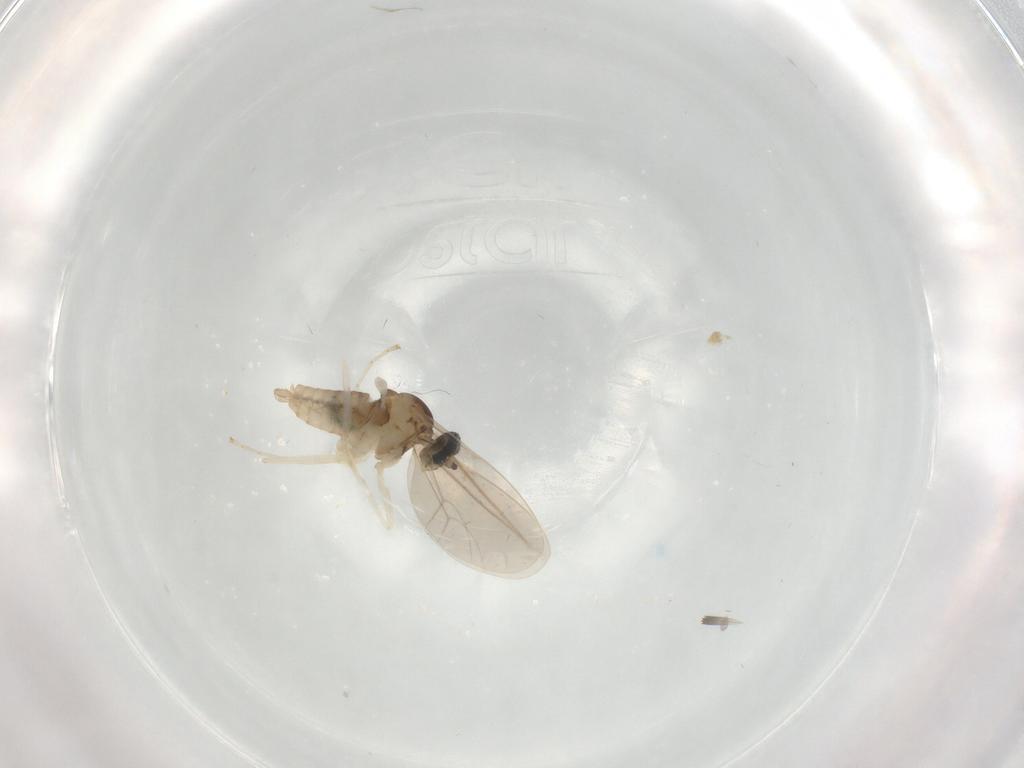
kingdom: Animalia
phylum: Arthropoda
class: Insecta
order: Diptera
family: Cecidomyiidae
